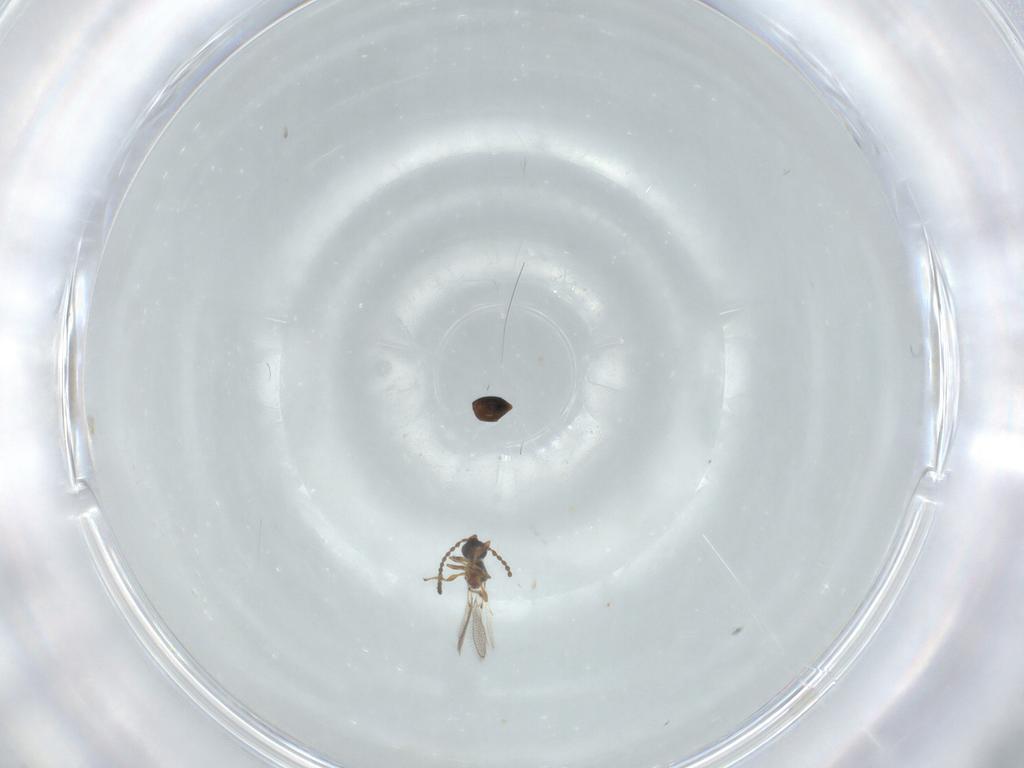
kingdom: Animalia
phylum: Arthropoda
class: Insecta
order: Hymenoptera
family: Diapriidae
